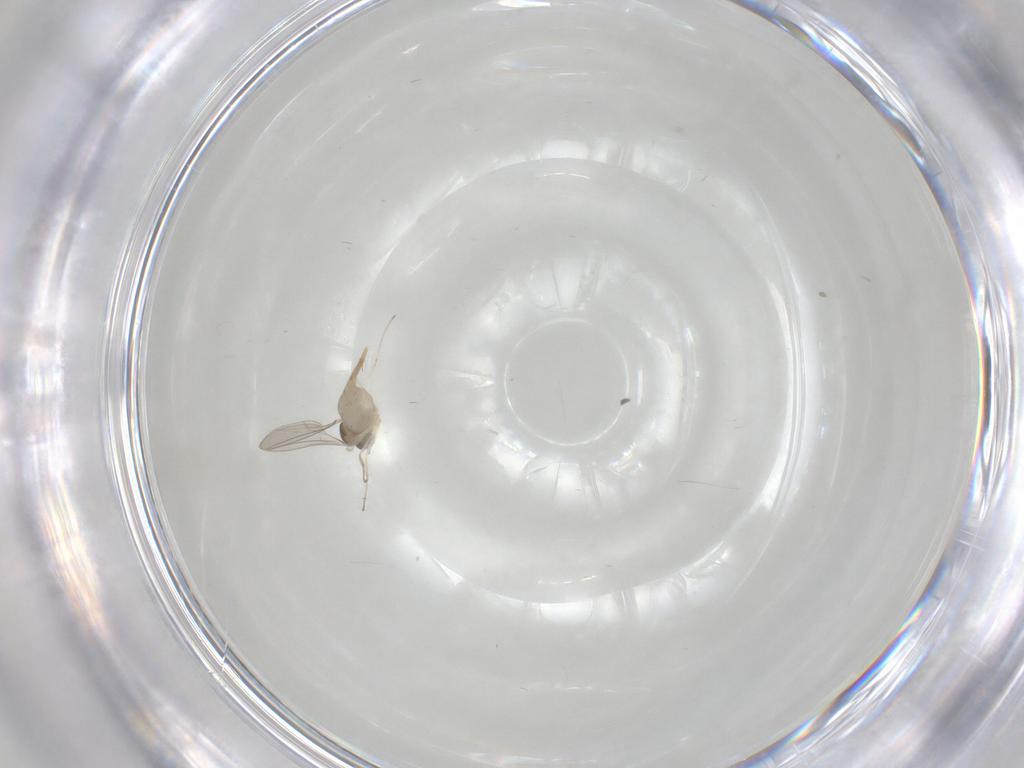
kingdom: Animalia
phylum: Arthropoda
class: Insecta
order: Diptera
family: Cecidomyiidae
